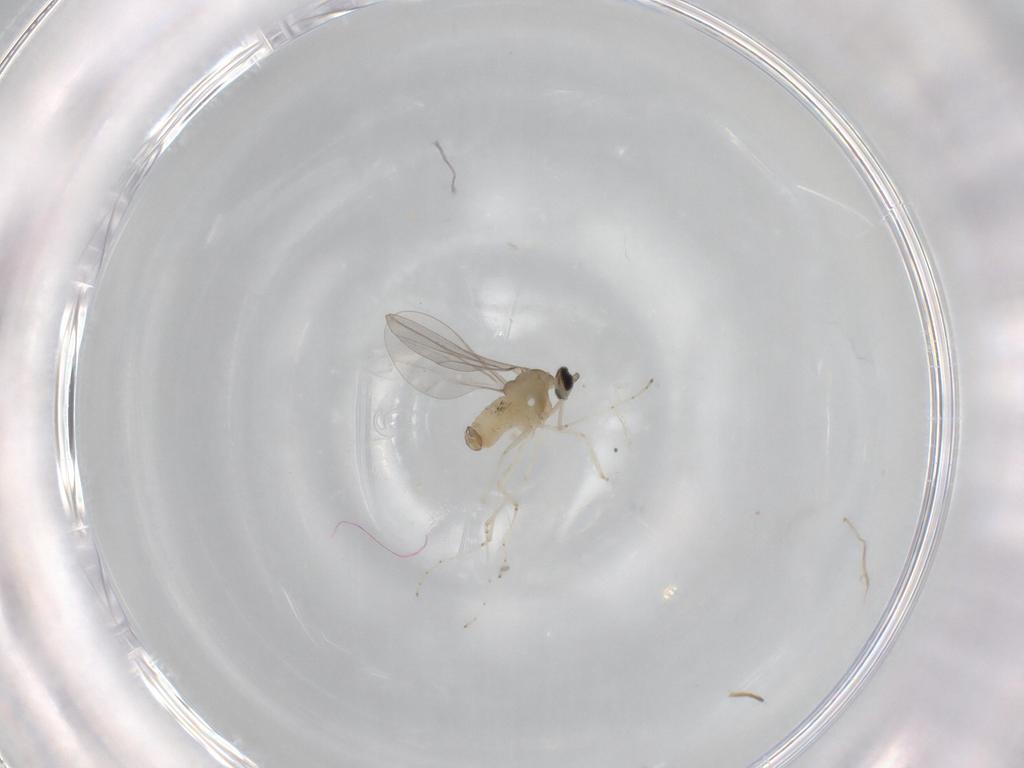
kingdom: Animalia
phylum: Arthropoda
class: Insecta
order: Diptera
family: Cecidomyiidae
